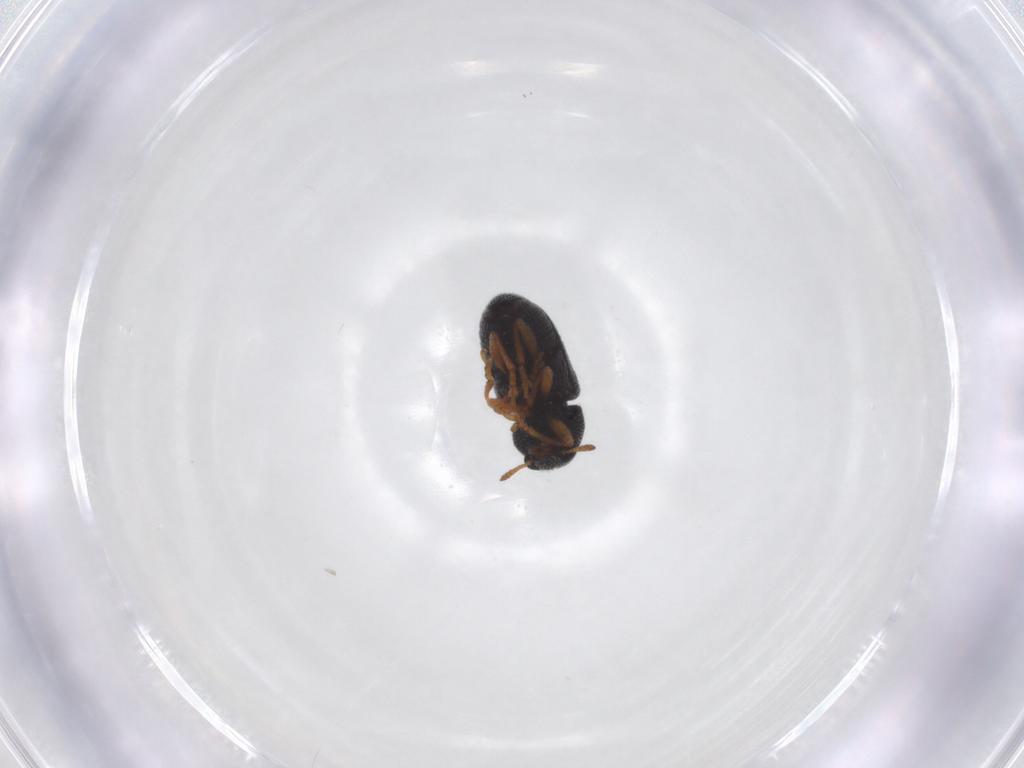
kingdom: Animalia
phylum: Arthropoda
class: Insecta
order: Coleoptera
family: Anthribidae
